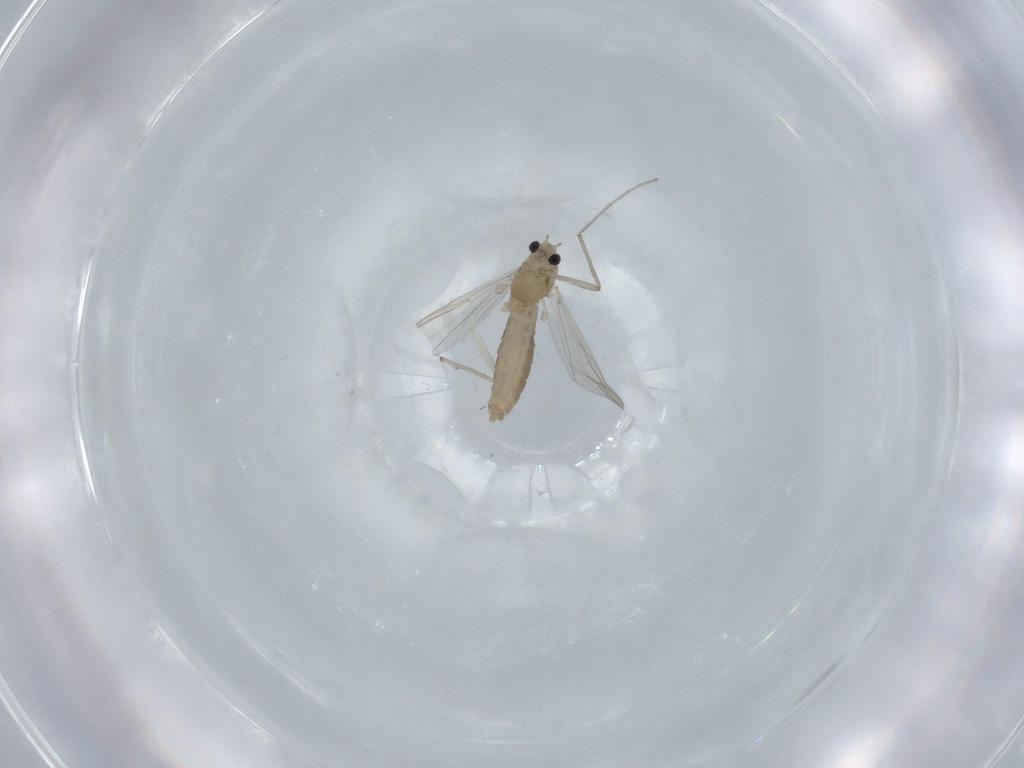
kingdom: Animalia
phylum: Arthropoda
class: Insecta
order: Diptera
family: Chironomidae
